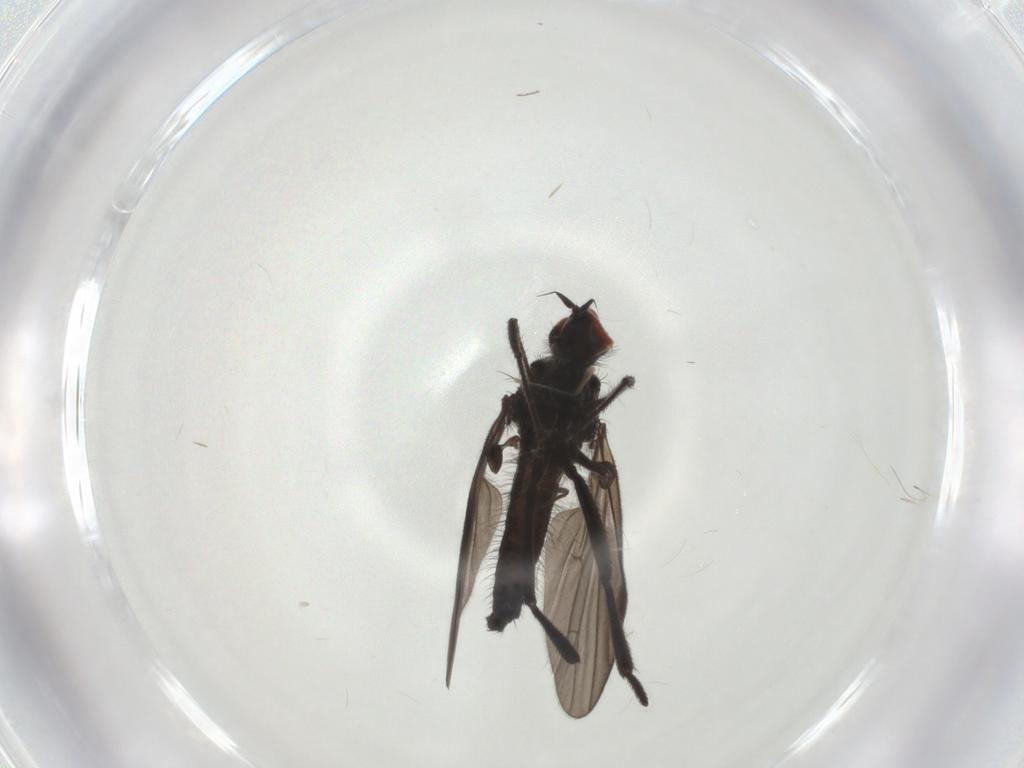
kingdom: Animalia
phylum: Arthropoda
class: Insecta
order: Diptera
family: Hybotidae
